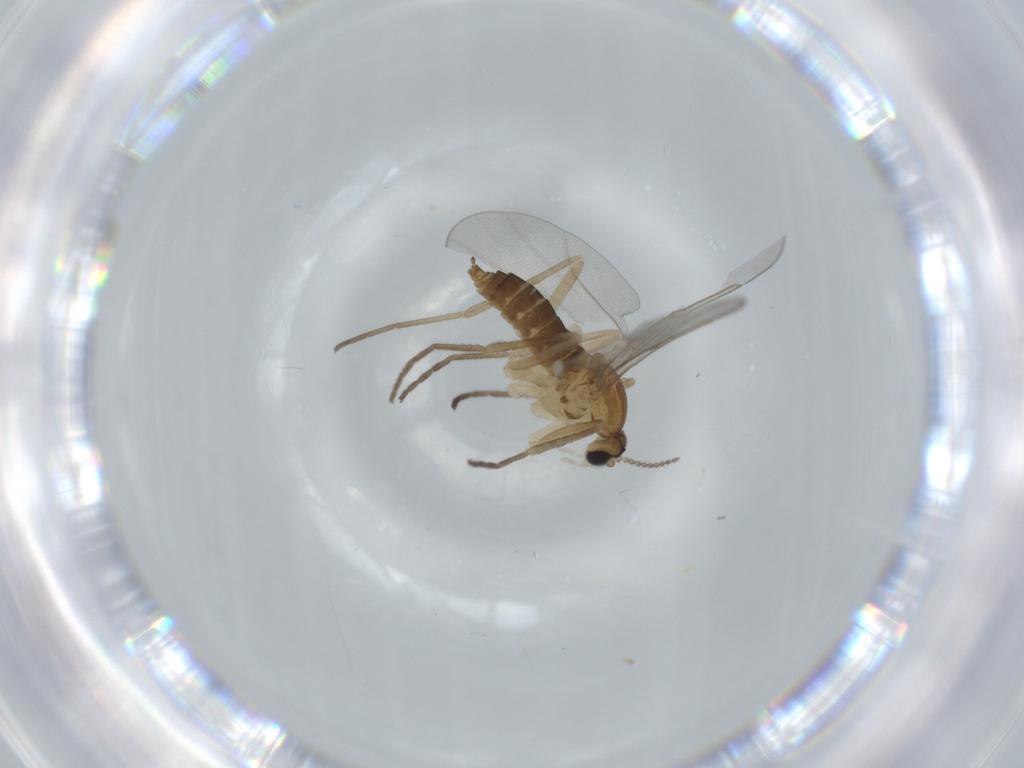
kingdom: Animalia
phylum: Arthropoda
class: Insecta
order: Diptera
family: Cecidomyiidae
